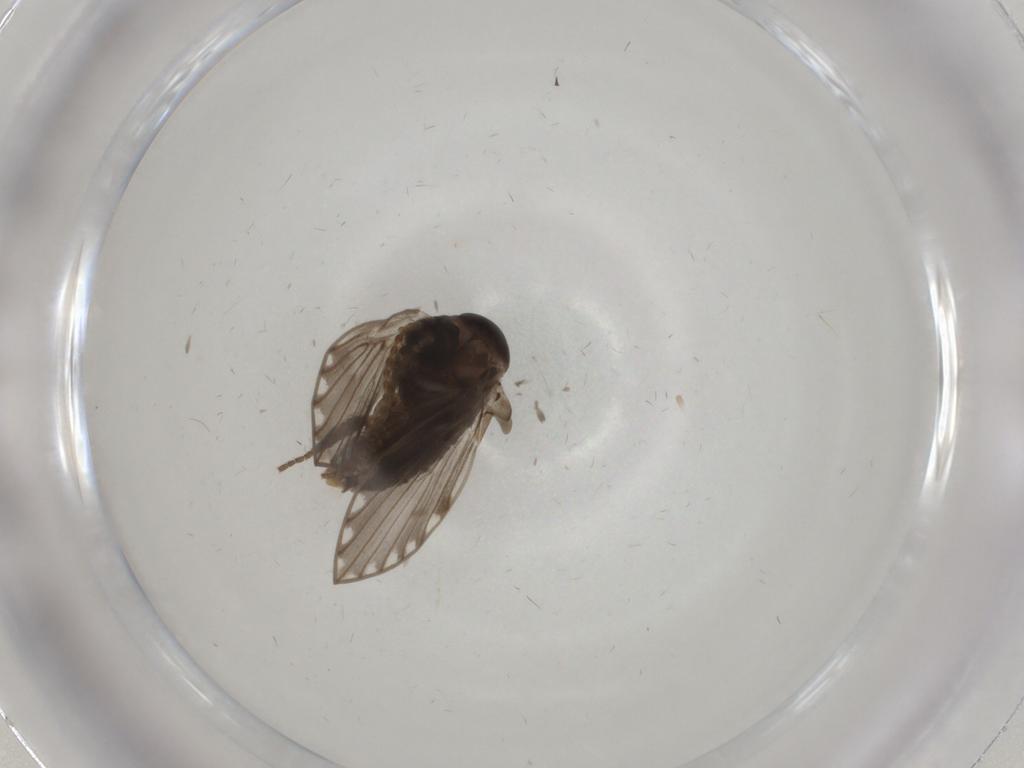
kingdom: Animalia
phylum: Arthropoda
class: Insecta
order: Diptera
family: Psychodidae
